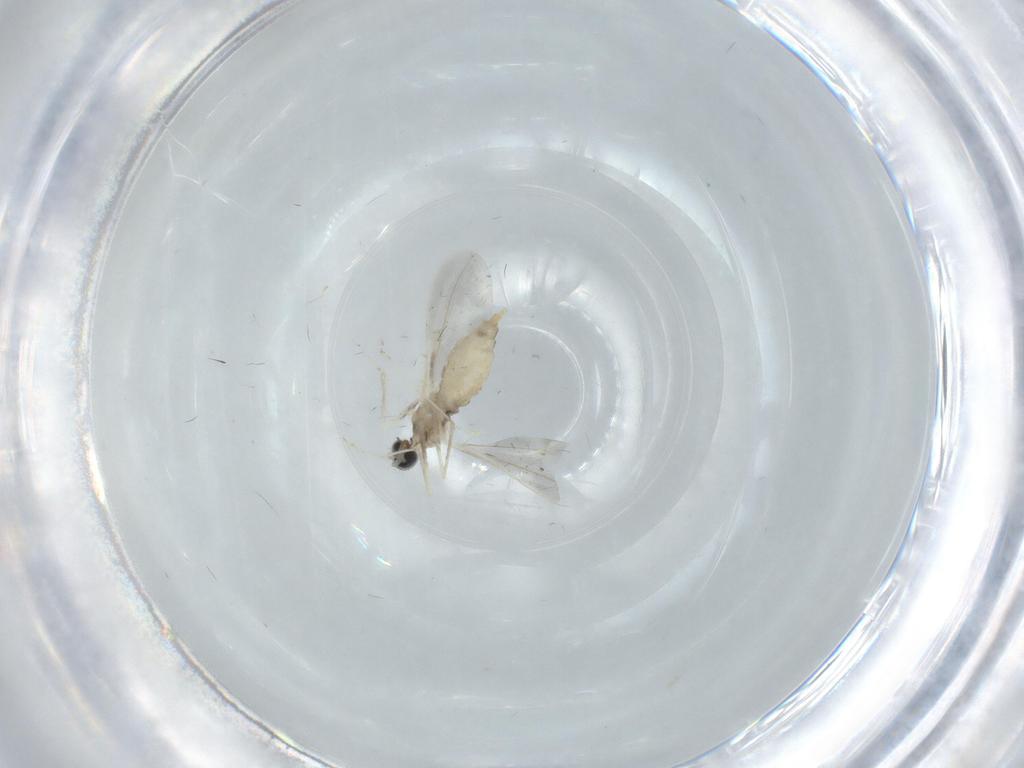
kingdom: Animalia
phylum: Arthropoda
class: Insecta
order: Diptera
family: Cecidomyiidae
